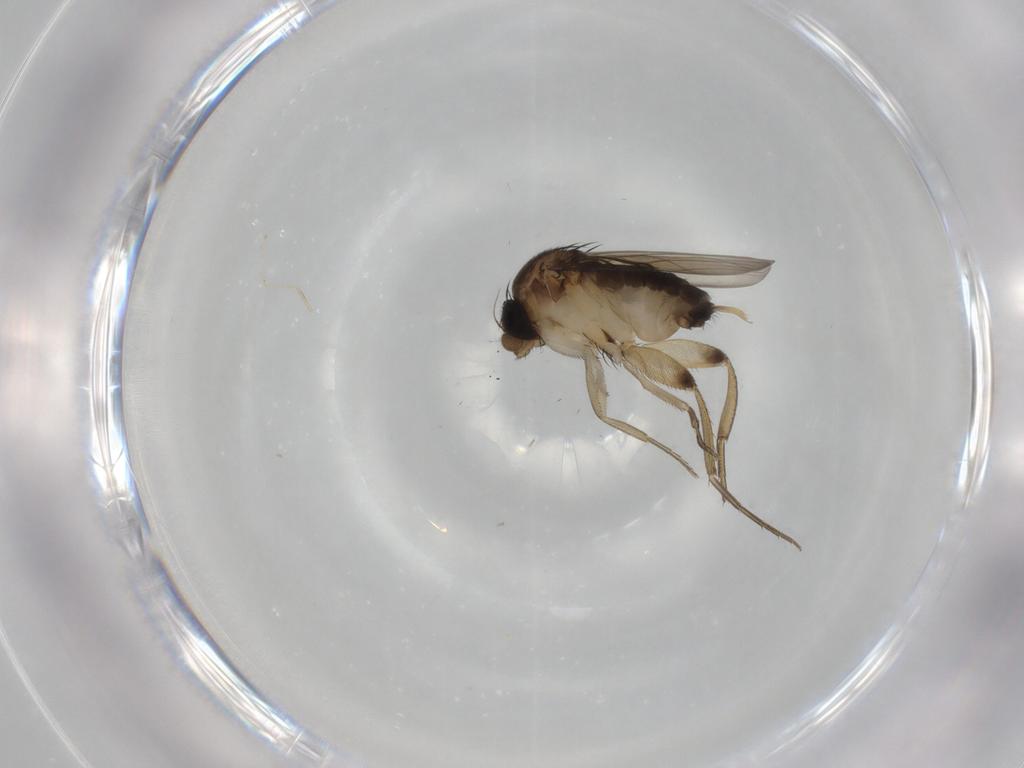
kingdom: Animalia
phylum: Arthropoda
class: Insecta
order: Diptera
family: Phoridae
